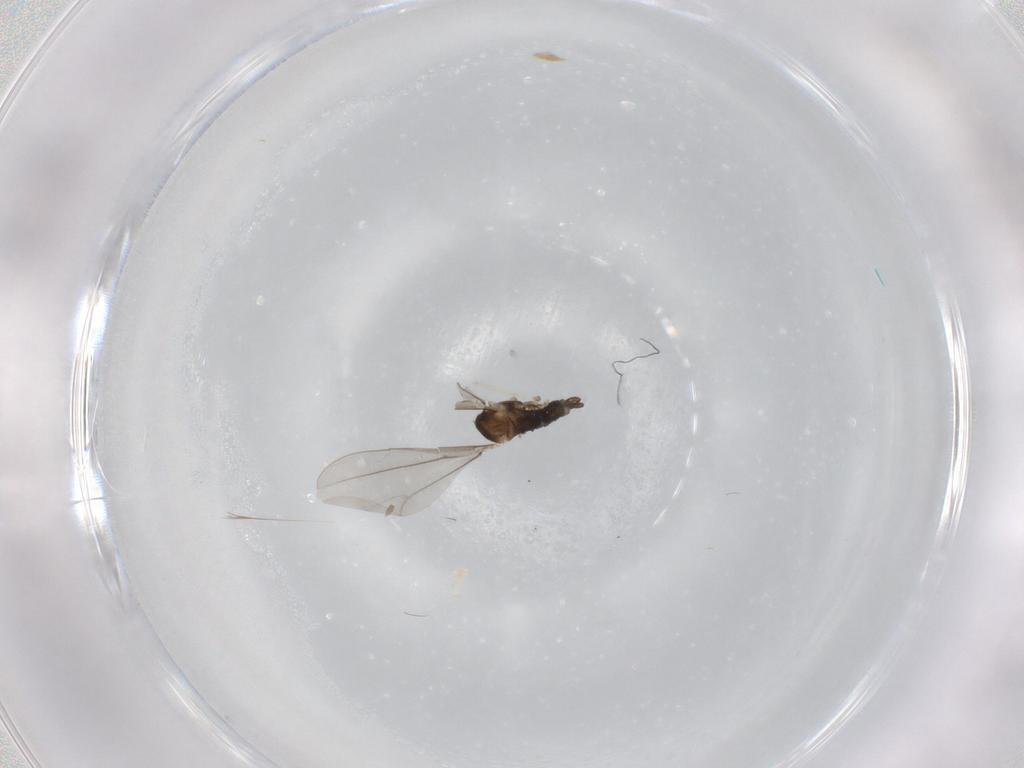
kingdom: Animalia
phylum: Arthropoda
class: Insecta
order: Diptera
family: Cecidomyiidae
